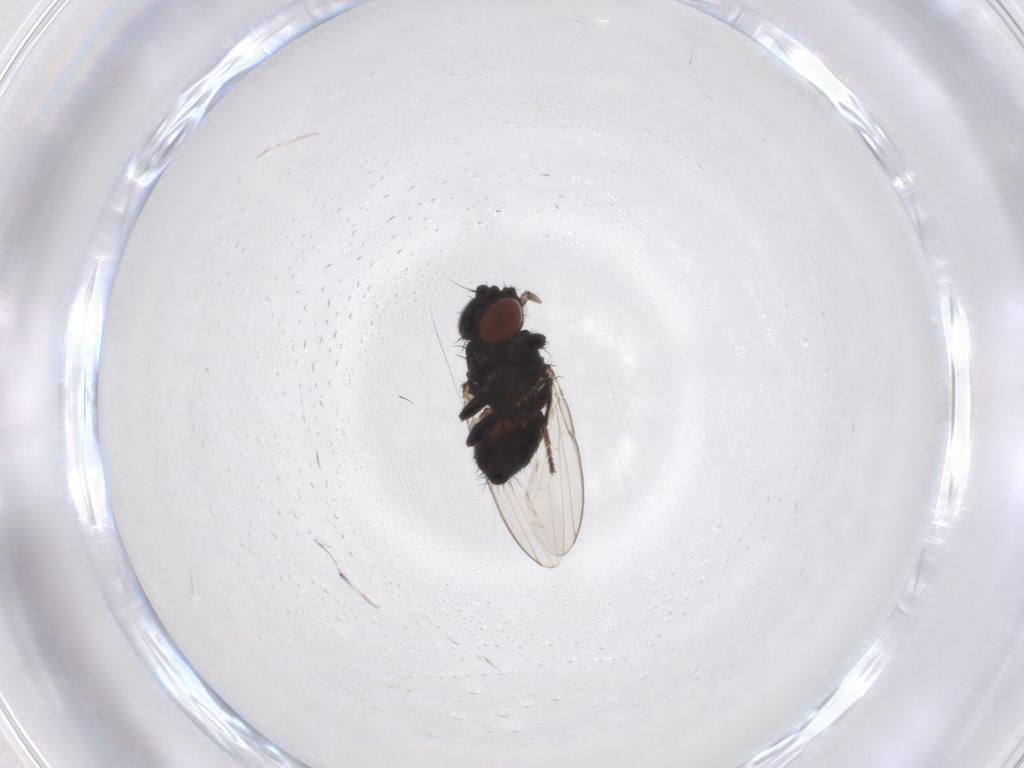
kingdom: Animalia
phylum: Arthropoda
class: Insecta
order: Diptera
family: Milichiidae
